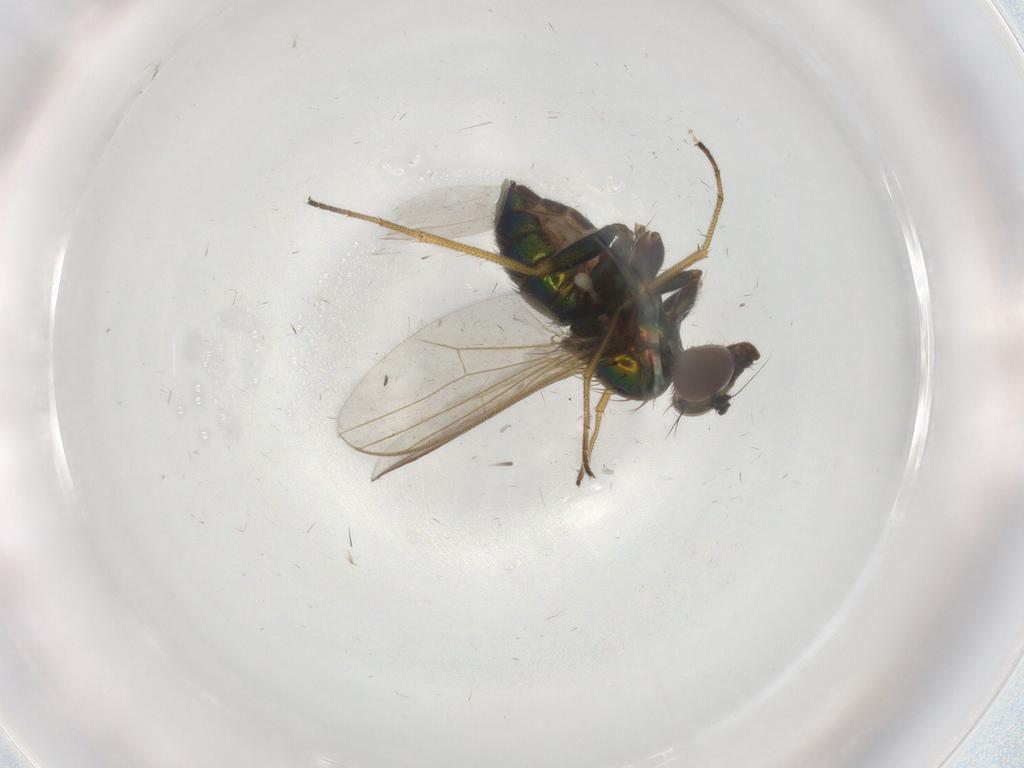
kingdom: Animalia
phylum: Arthropoda
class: Insecta
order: Diptera
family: Dolichopodidae
